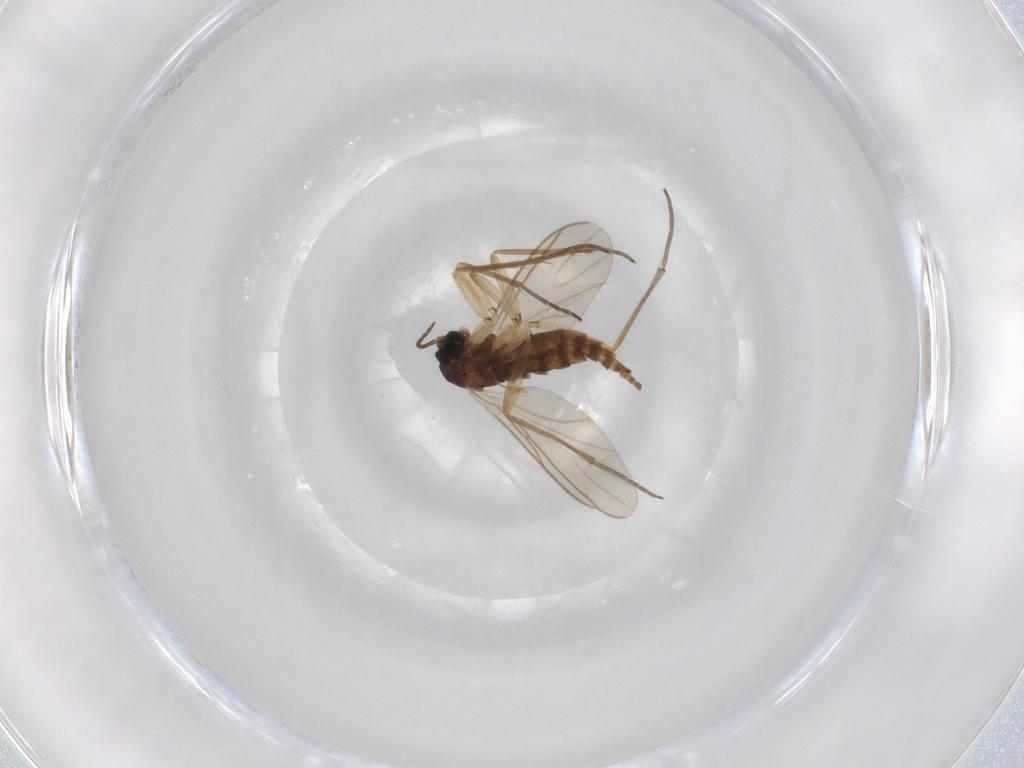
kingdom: Animalia
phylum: Arthropoda
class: Insecta
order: Diptera
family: Sciaridae
